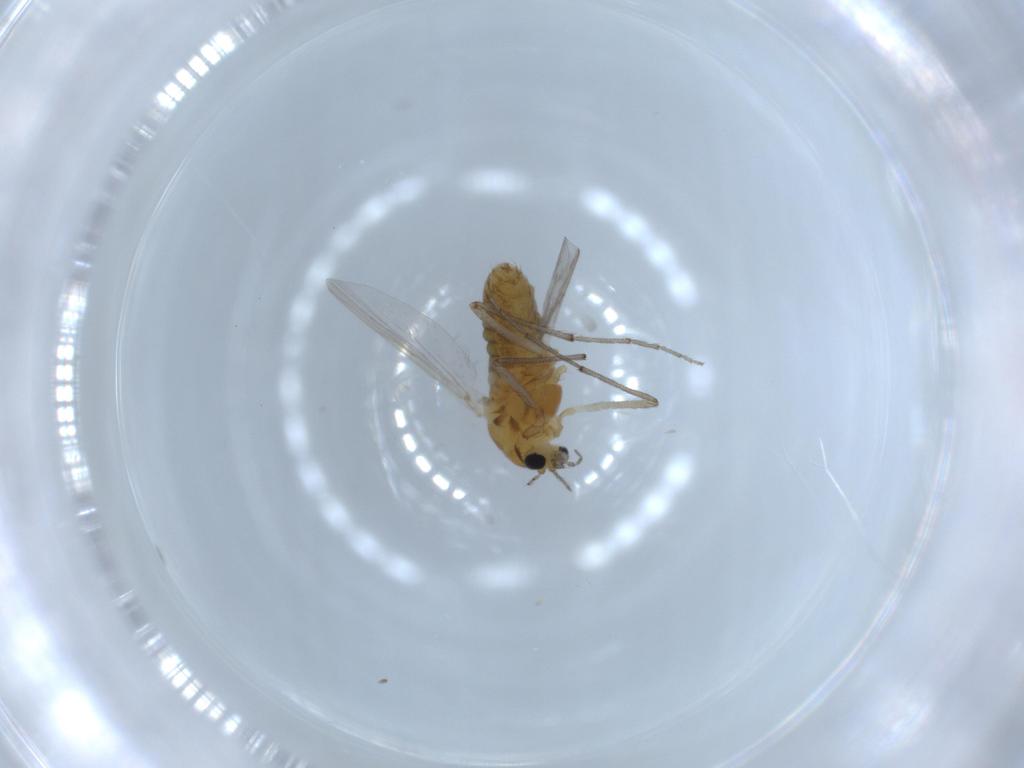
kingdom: Animalia
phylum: Arthropoda
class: Insecta
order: Diptera
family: Chironomidae
